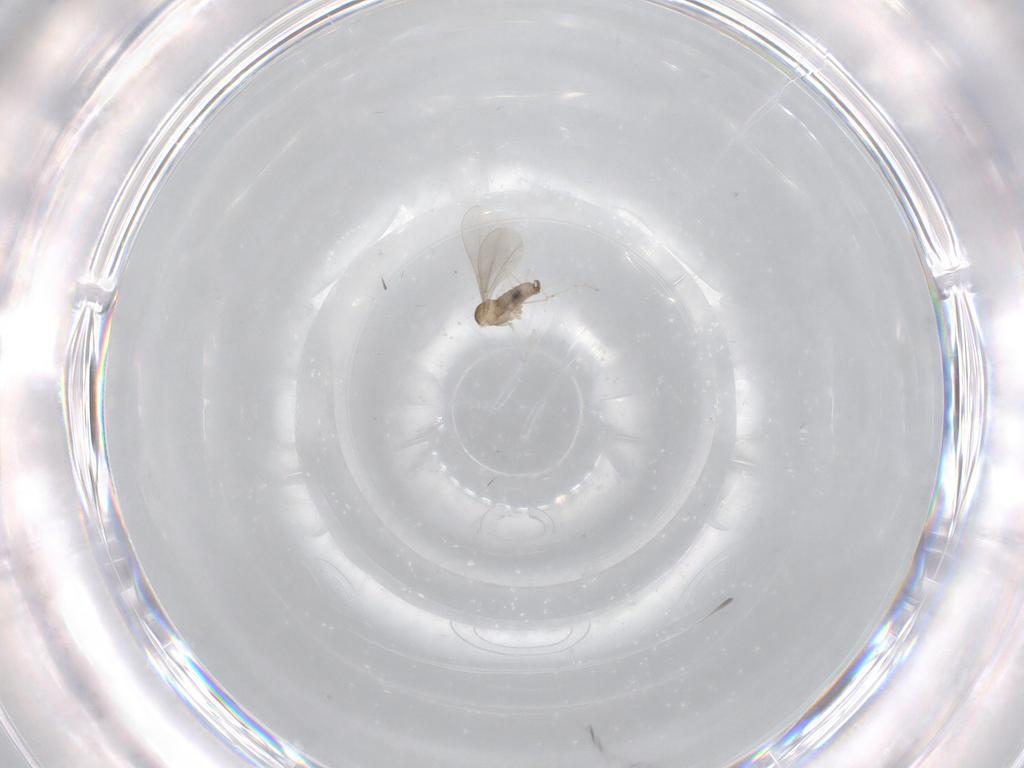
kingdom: Animalia
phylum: Arthropoda
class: Insecta
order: Diptera
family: Cecidomyiidae
